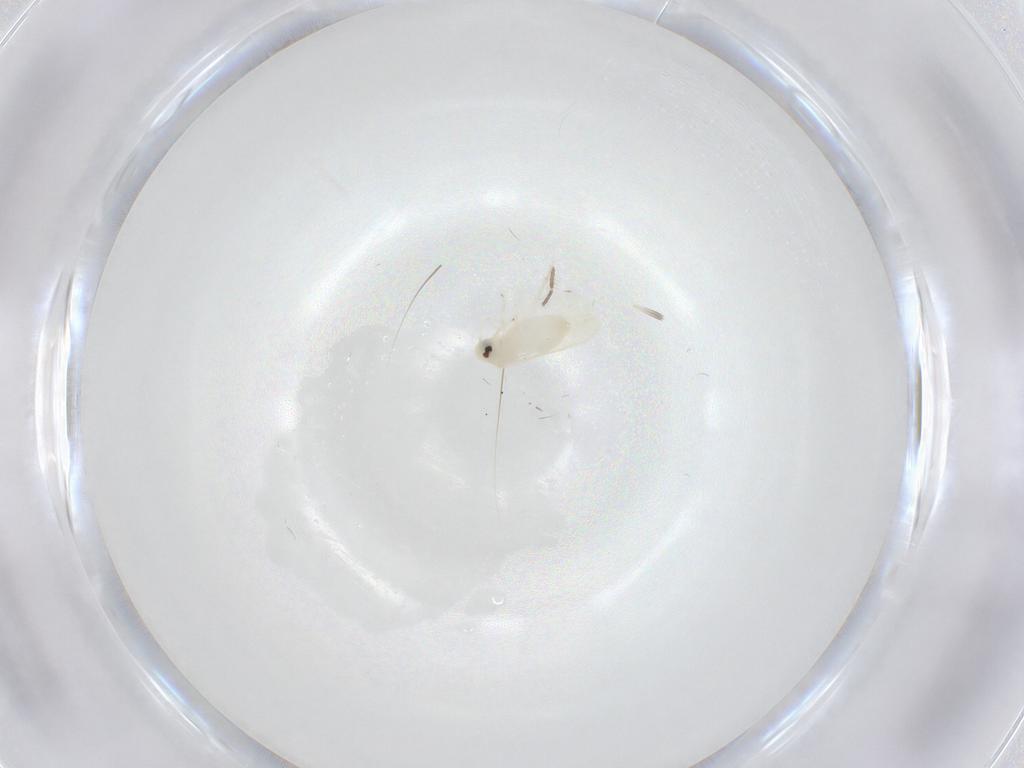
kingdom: Animalia
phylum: Arthropoda
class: Insecta
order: Hemiptera
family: Aleyrodidae
